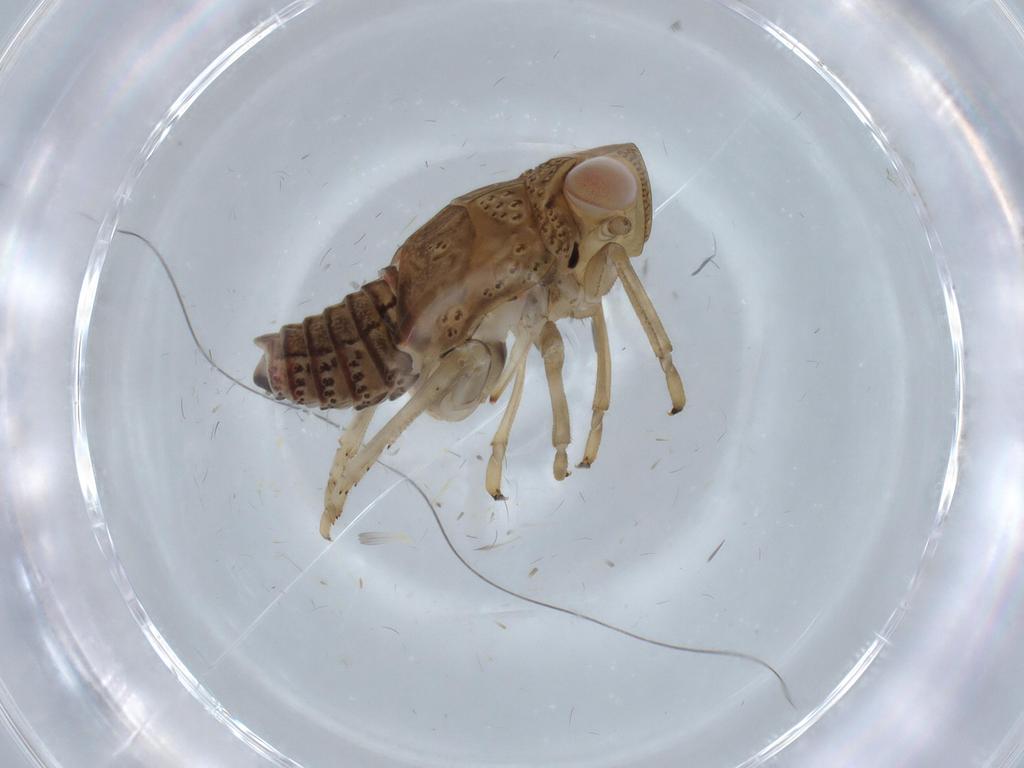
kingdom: Animalia
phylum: Arthropoda
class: Insecta
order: Hemiptera
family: Issidae
